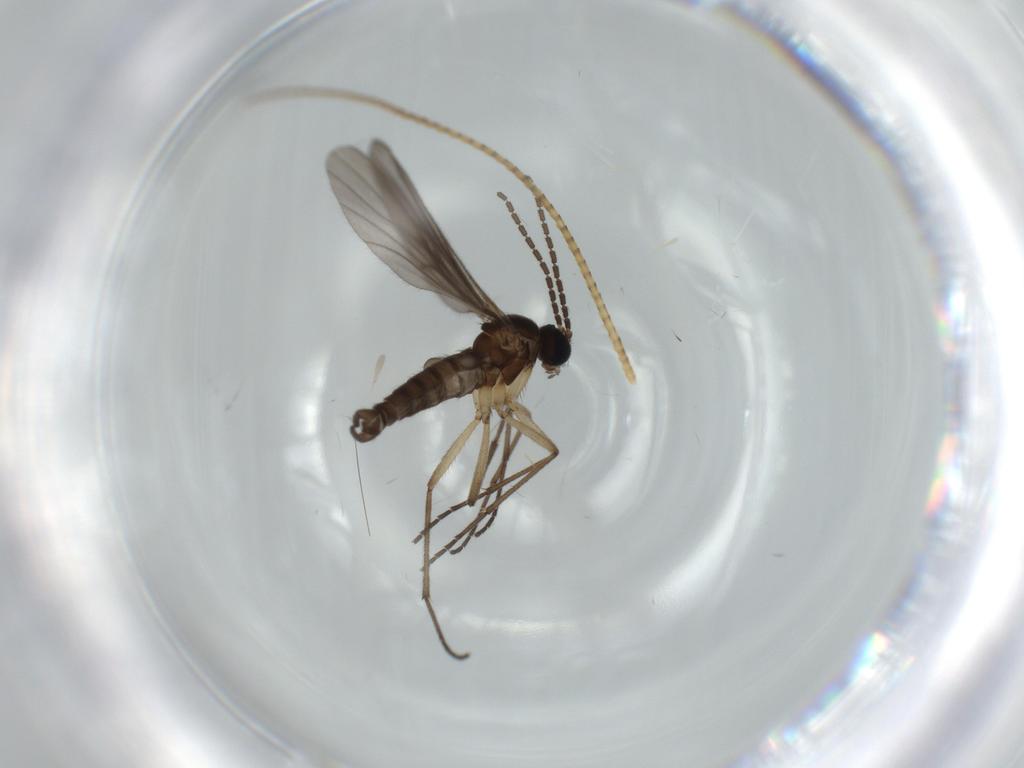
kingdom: Animalia
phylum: Arthropoda
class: Insecta
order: Diptera
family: Sciaridae
